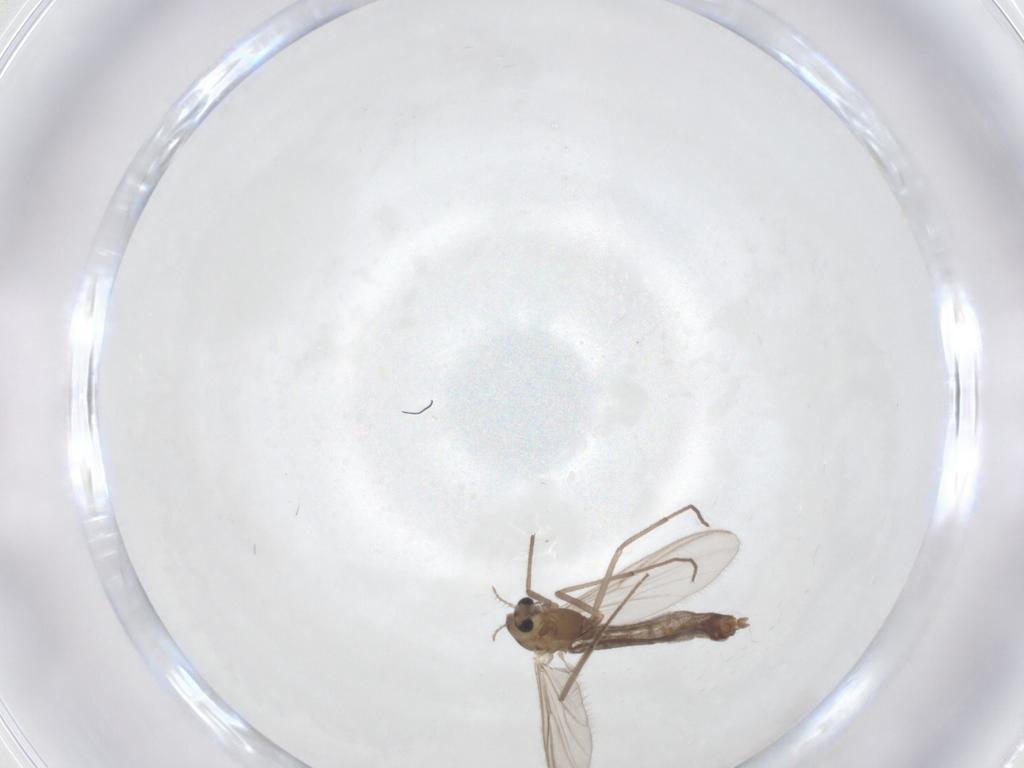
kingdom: Animalia
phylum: Arthropoda
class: Insecta
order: Diptera
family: Chironomidae
